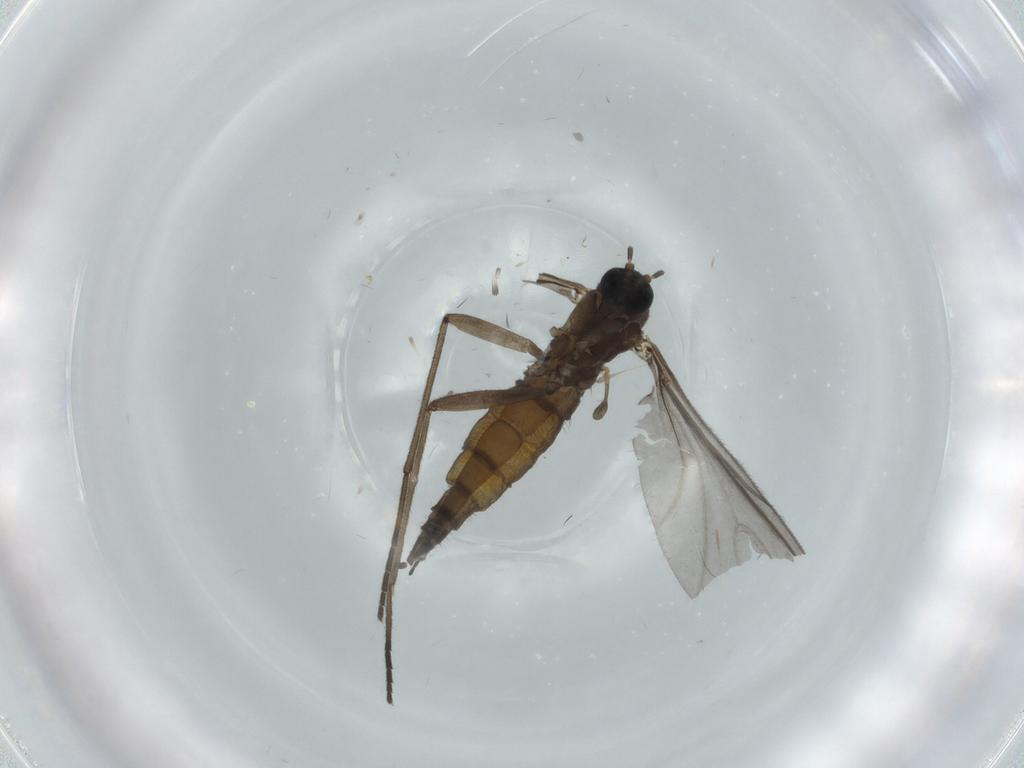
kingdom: Animalia
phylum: Arthropoda
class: Insecta
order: Diptera
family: Sciaridae
